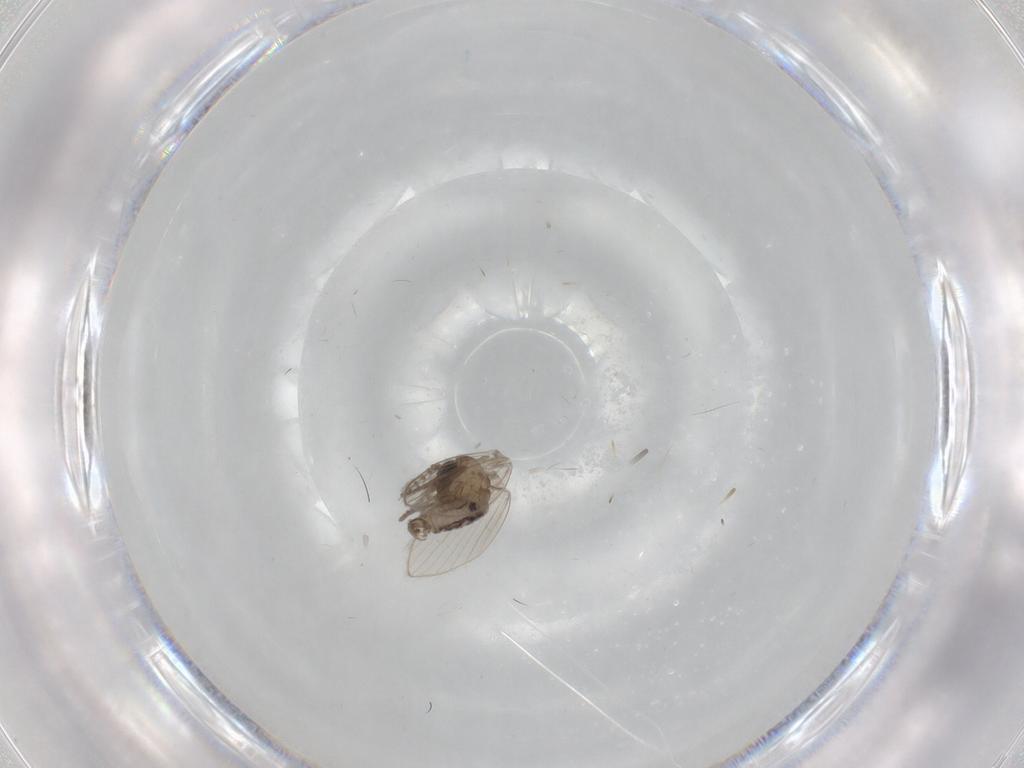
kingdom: Animalia
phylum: Arthropoda
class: Insecta
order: Diptera
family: Psychodidae
